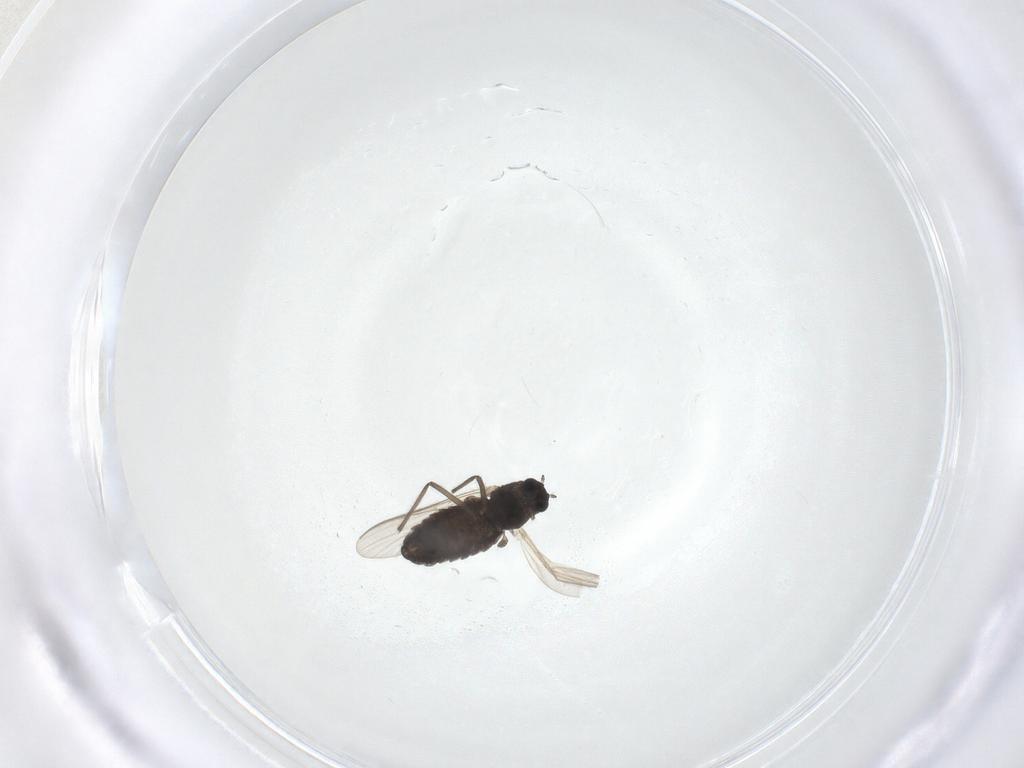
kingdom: Animalia
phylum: Arthropoda
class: Insecta
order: Diptera
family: Chironomidae
